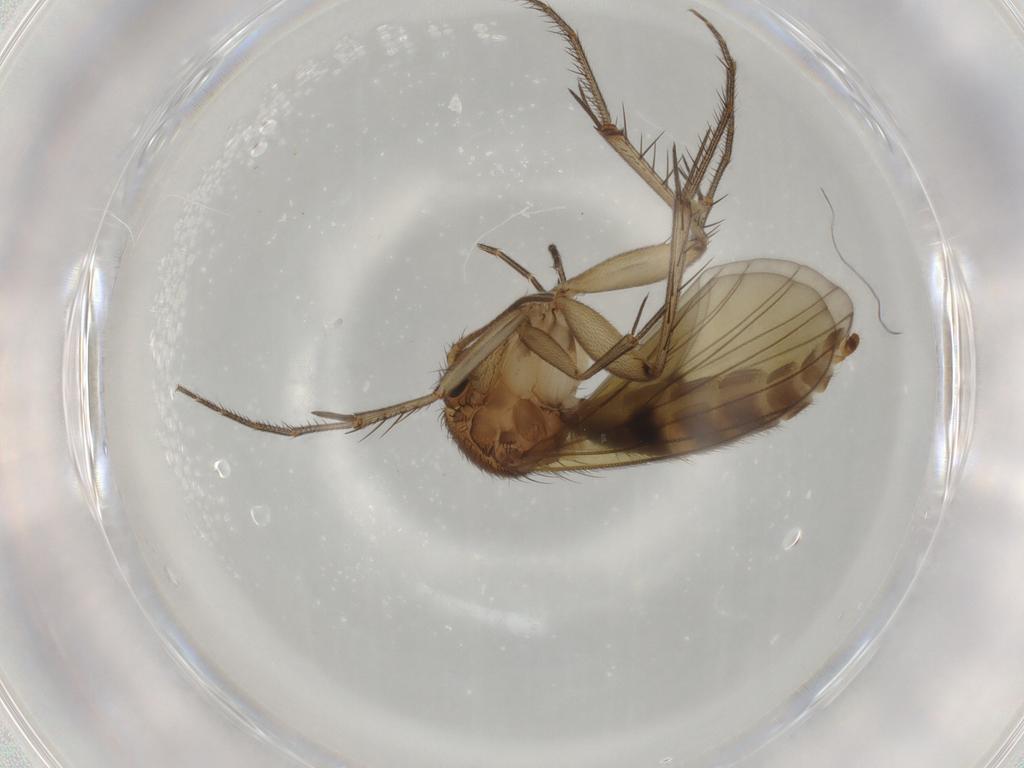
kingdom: Animalia
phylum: Arthropoda
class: Insecta
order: Diptera
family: Mycetophilidae
